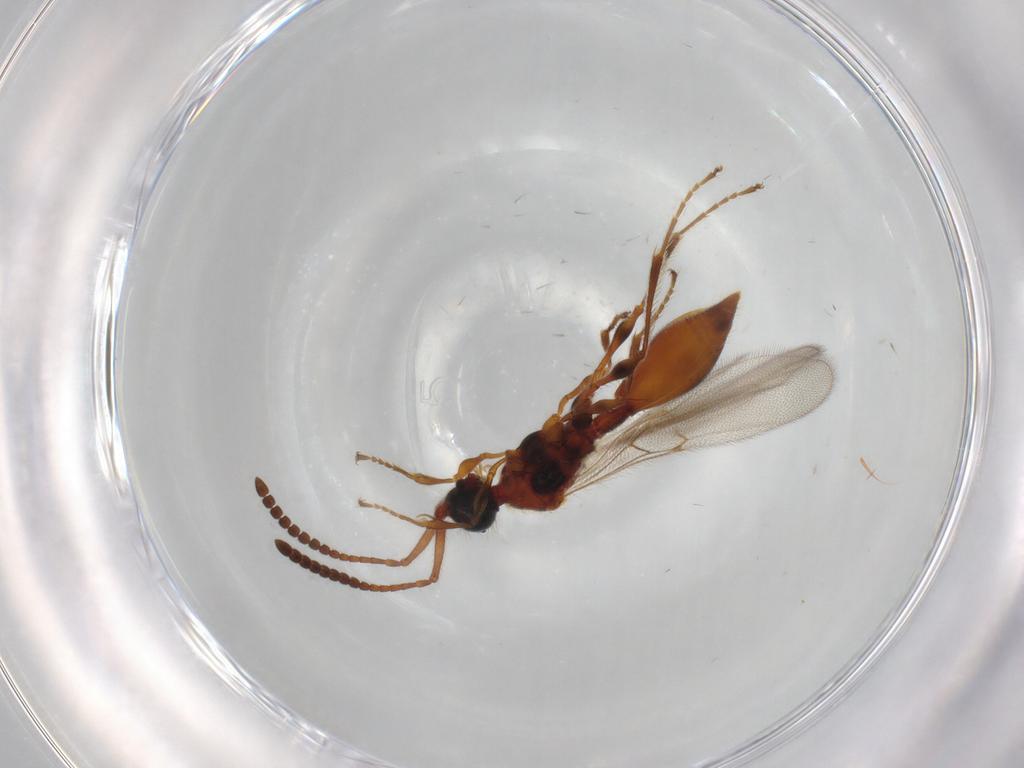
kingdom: Animalia
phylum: Arthropoda
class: Insecta
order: Hymenoptera
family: Diapriidae
